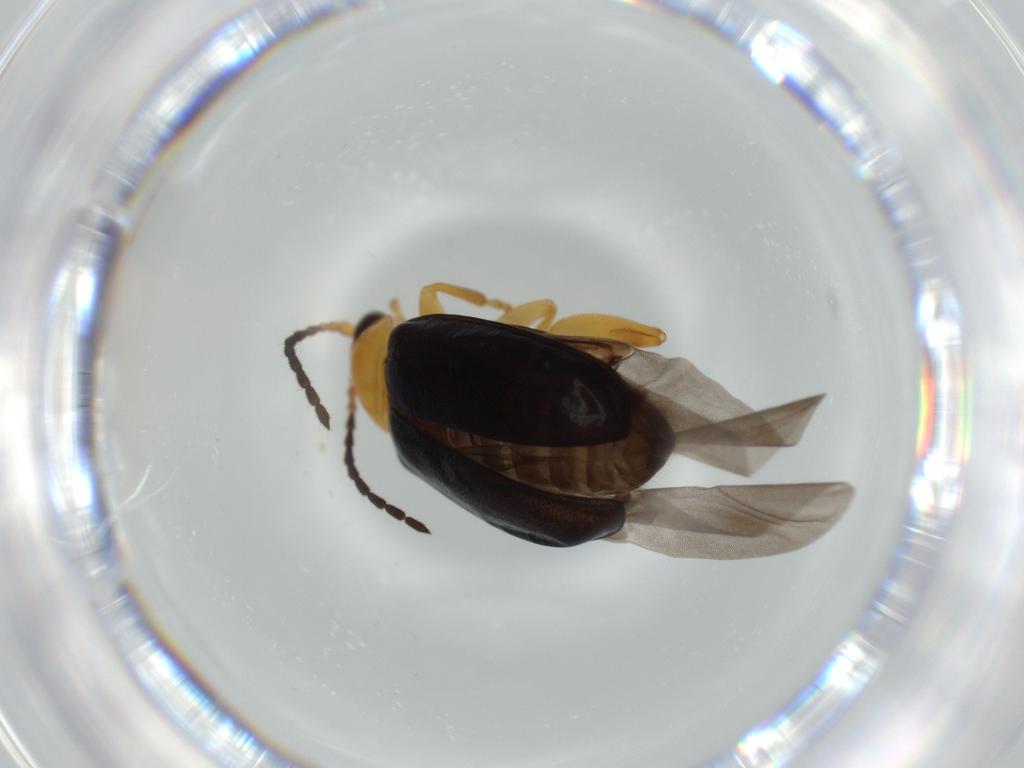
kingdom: Animalia
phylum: Arthropoda
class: Insecta
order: Coleoptera
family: Chrysomelidae
